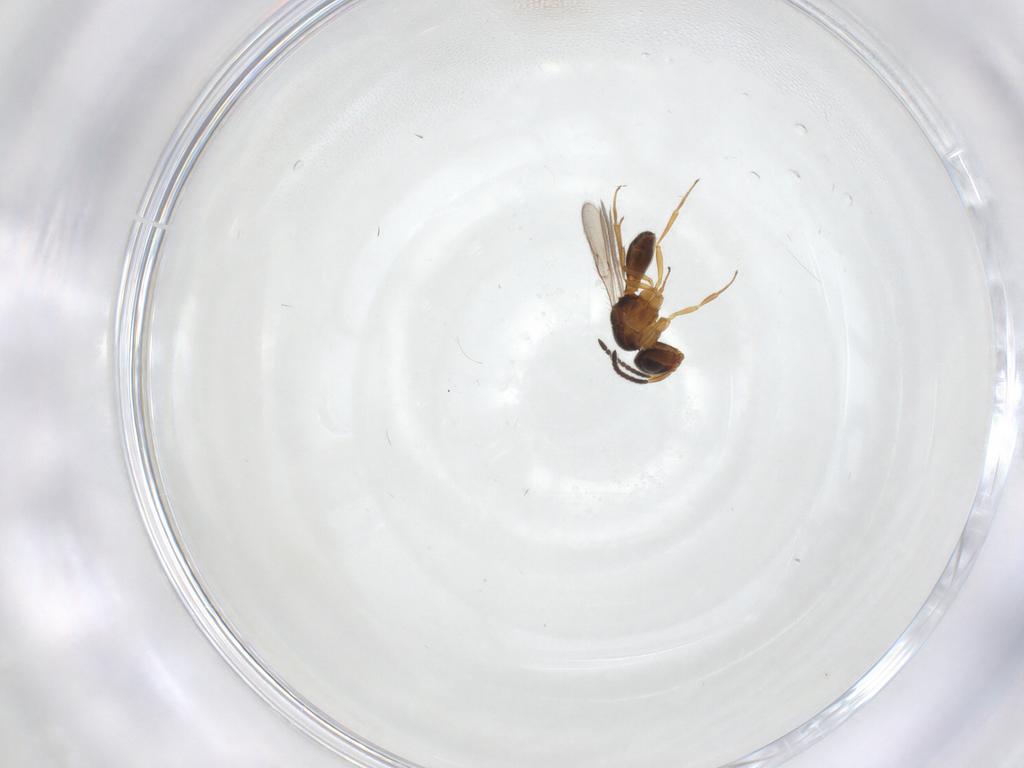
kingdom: Animalia
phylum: Arthropoda
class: Insecta
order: Hymenoptera
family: Scelionidae
